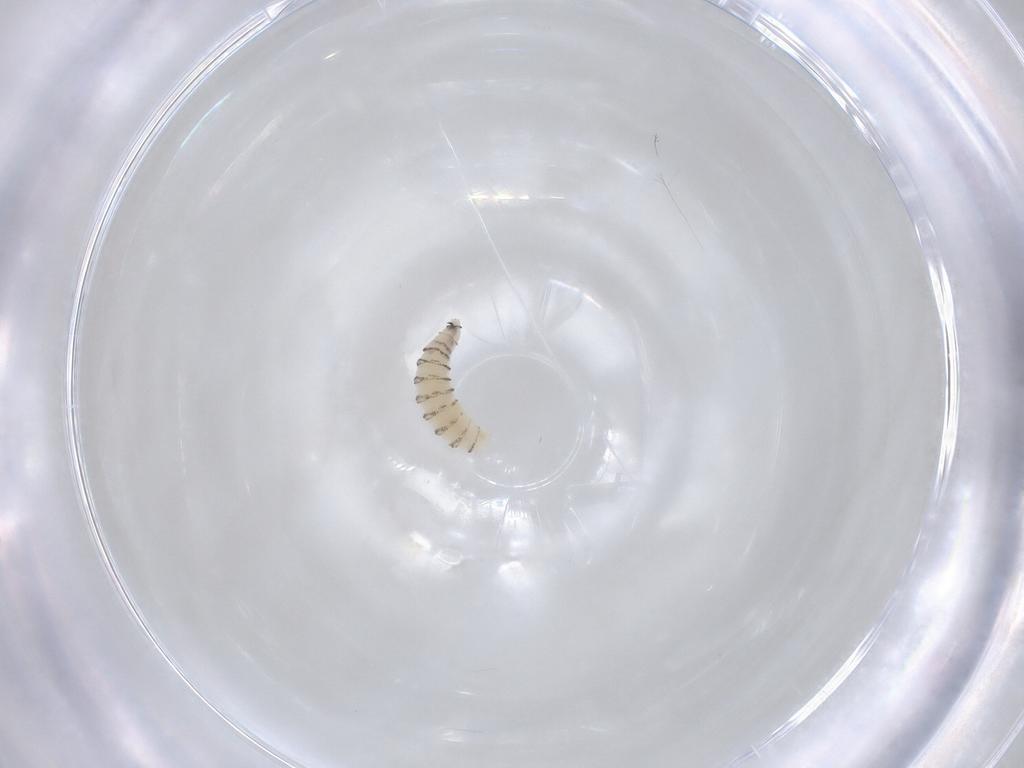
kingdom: Animalia
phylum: Arthropoda
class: Insecta
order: Diptera
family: Sarcophagidae
